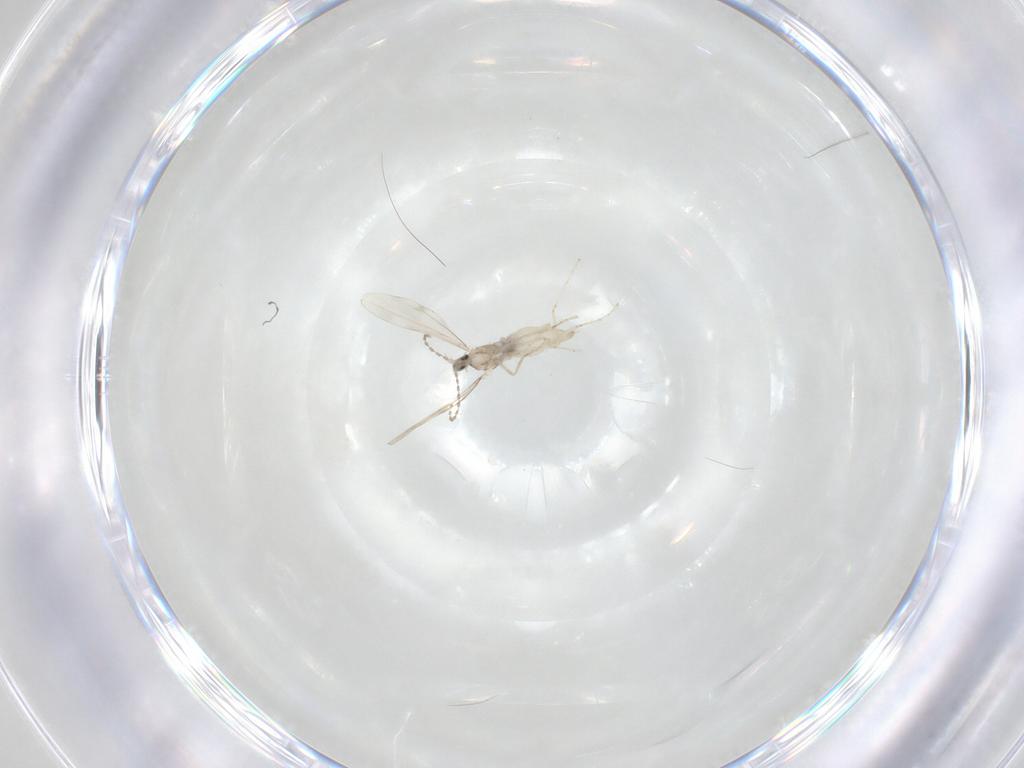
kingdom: Animalia
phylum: Arthropoda
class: Insecta
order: Diptera
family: Cecidomyiidae
